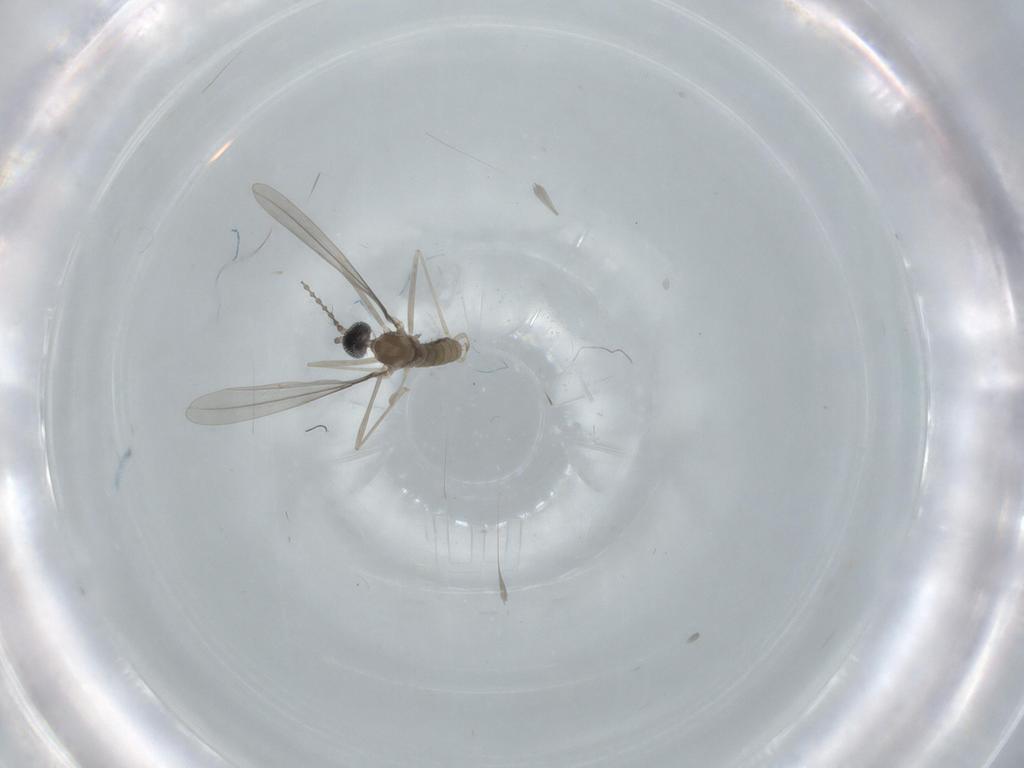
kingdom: Animalia
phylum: Arthropoda
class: Insecta
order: Diptera
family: Cecidomyiidae
